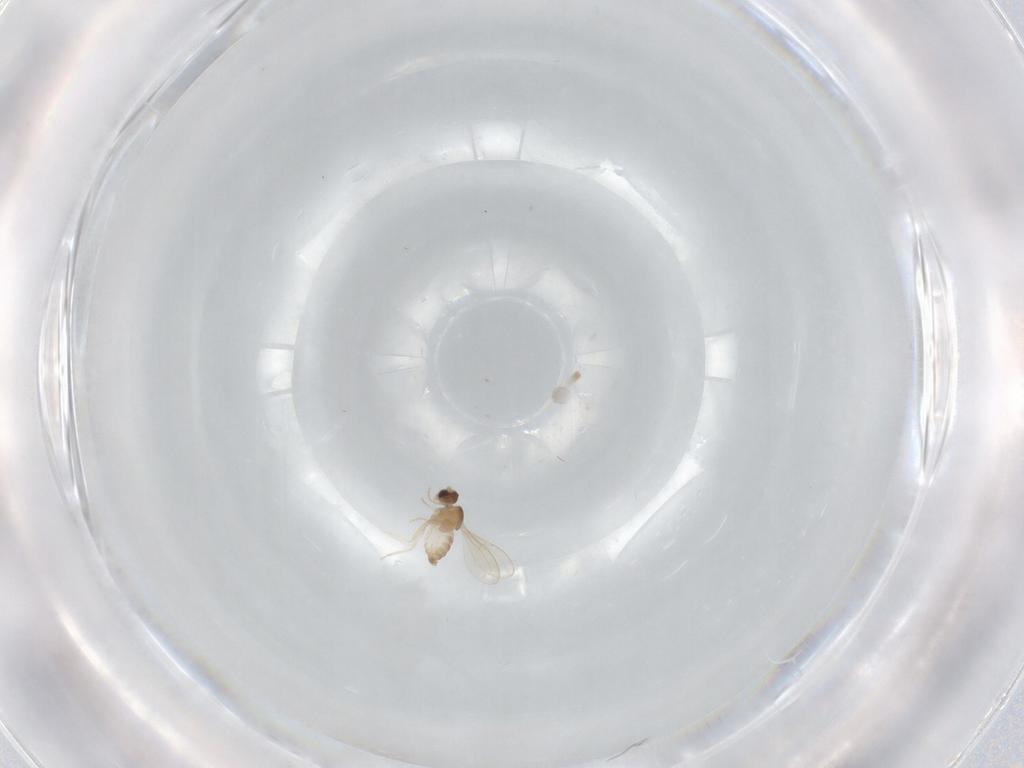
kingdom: Animalia
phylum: Arthropoda
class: Insecta
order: Diptera
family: Cecidomyiidae
